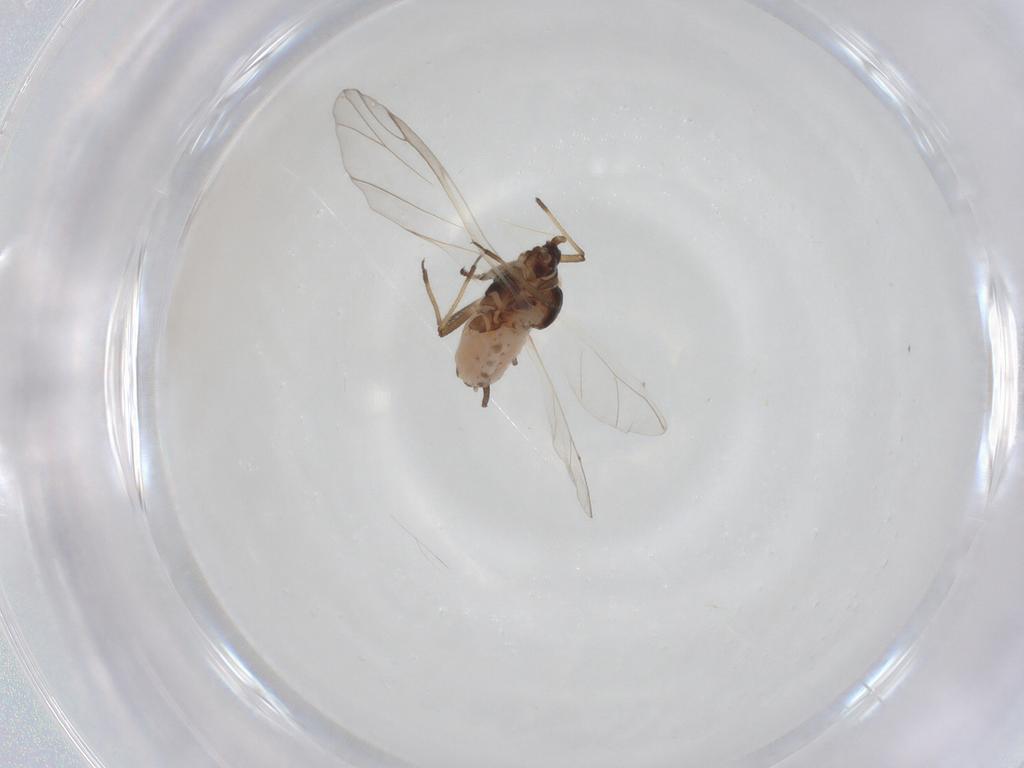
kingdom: Animalia
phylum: Arthropoda
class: Insecta
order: Hemiptera
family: Aphididae
